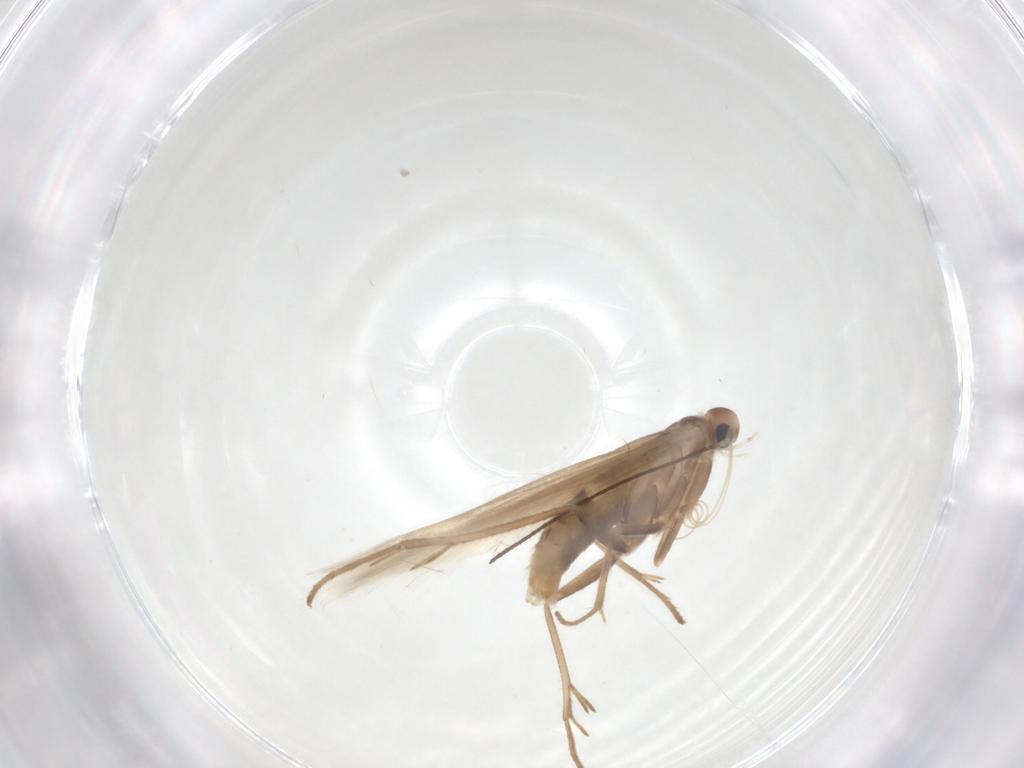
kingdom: Animalia
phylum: Arthropoda
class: Insecta
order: Lepidoptera
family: Coleophoridae
